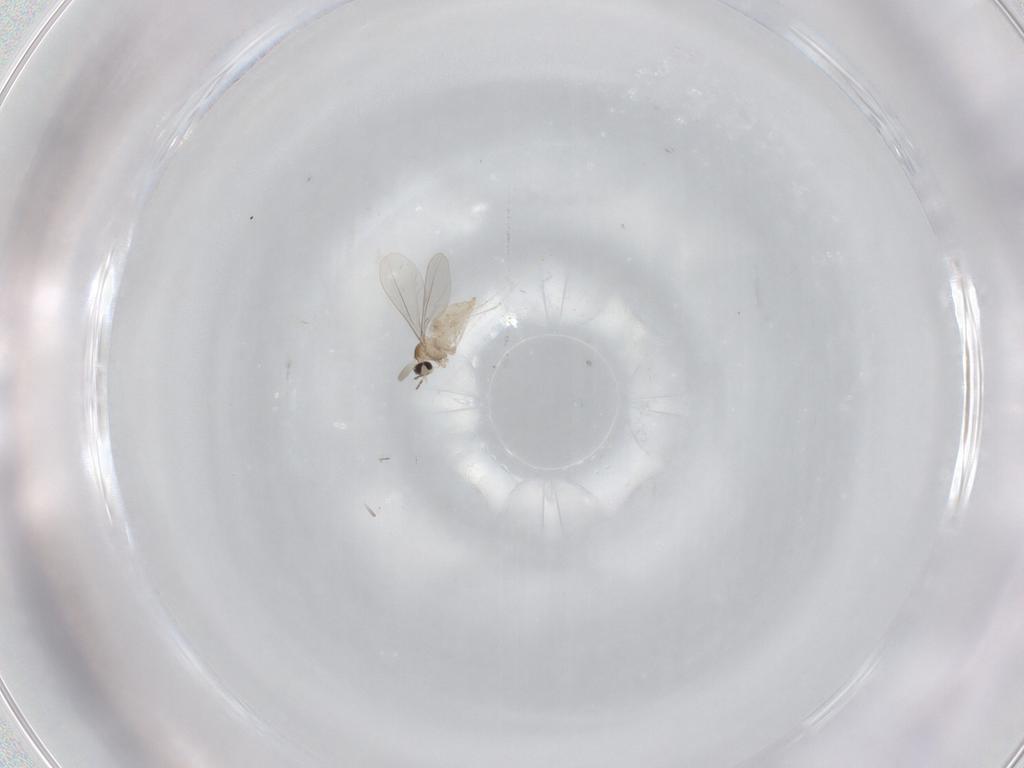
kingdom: Animalia
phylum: Arthropoda
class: Insecta
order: Diptera
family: Cecidomyiidae
